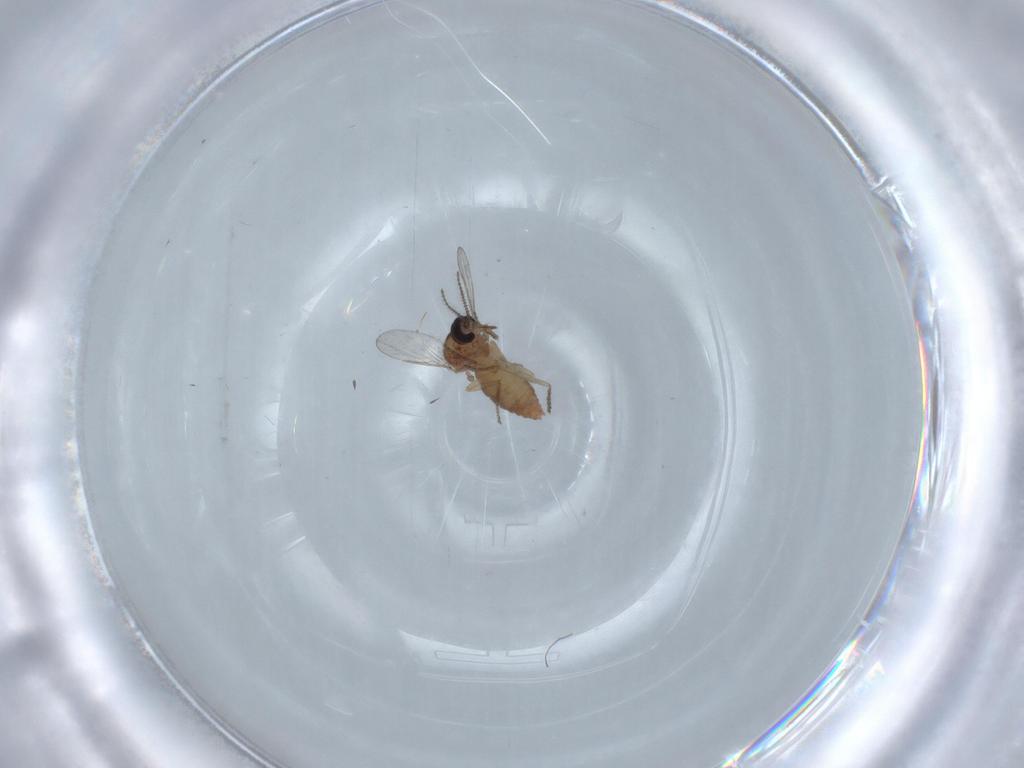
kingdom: Animalia
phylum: Arthropoda
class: Insecta
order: Diptera
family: Ceratopogonidae
